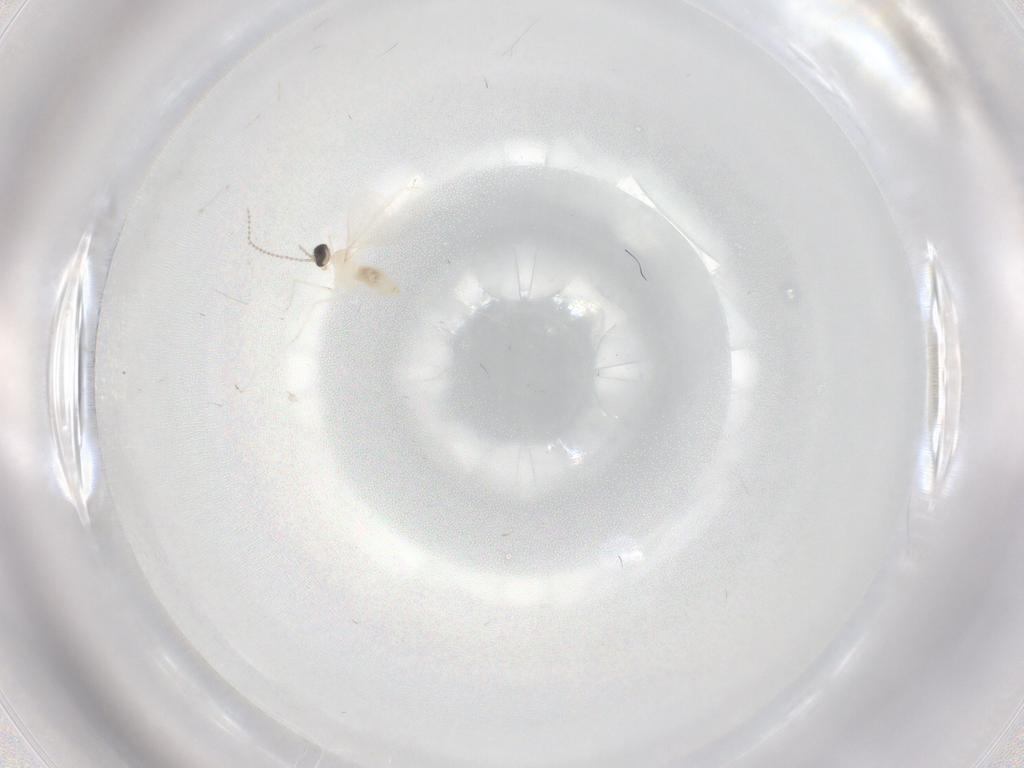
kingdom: Animalia
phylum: Arthropoda
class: Insecta
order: Diptera
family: Cecidomyiidae
